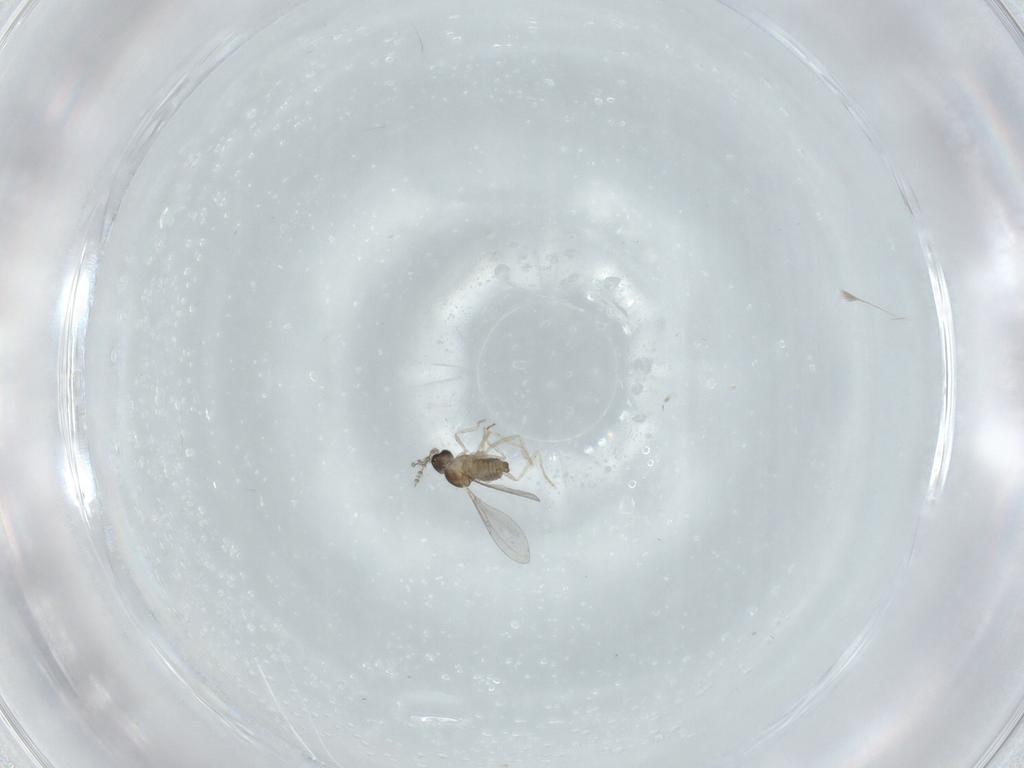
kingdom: Animalia
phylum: Arthropoda
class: Insecta
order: Diptera
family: Cecidomyiidae
